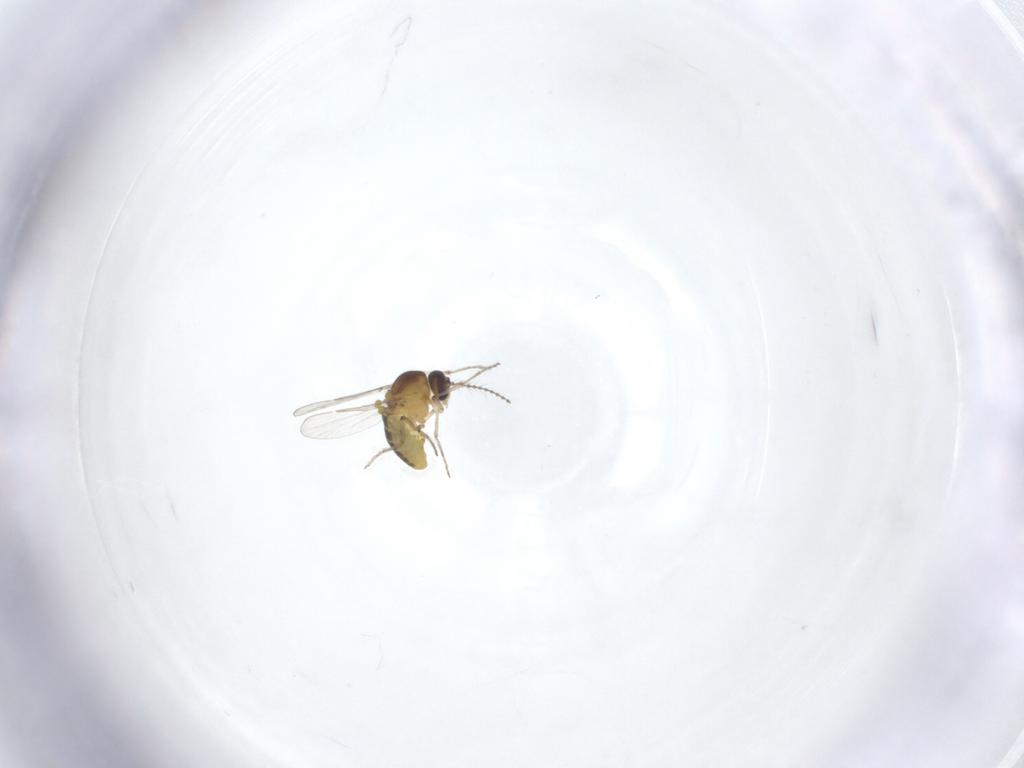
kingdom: Animalia
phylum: Arthropoda
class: Insecta
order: Diptera
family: Ceratopogonidae
